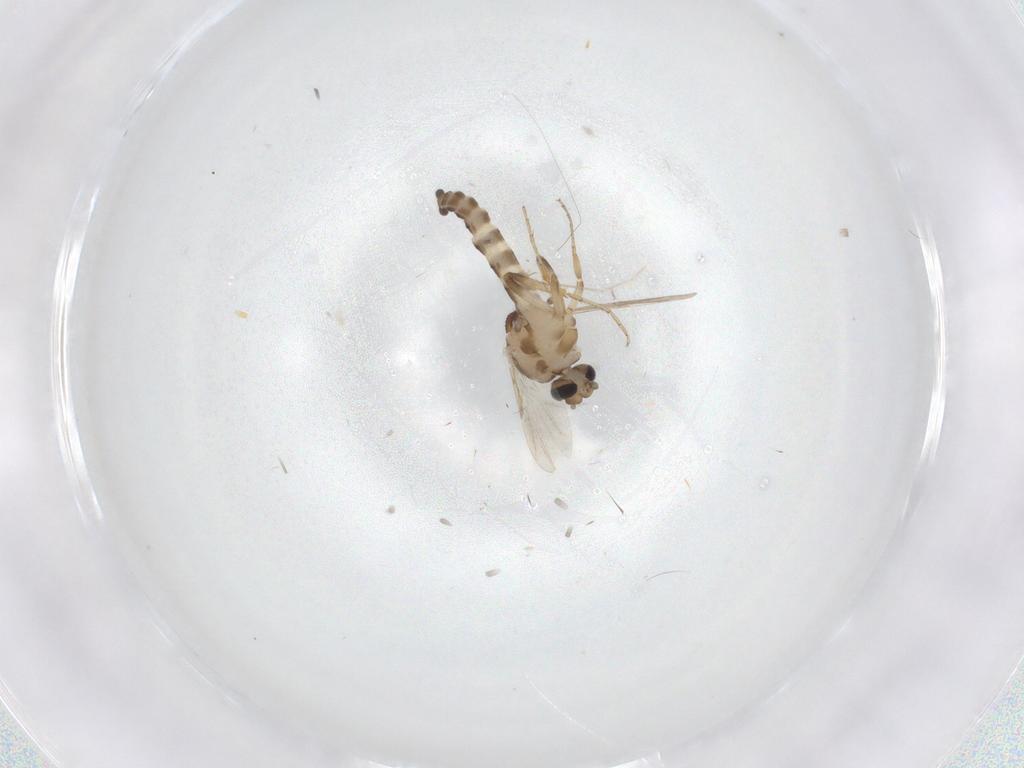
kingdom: Animalia
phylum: Arthropoda
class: Insecta
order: Diptera
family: Ceratopogonidae
